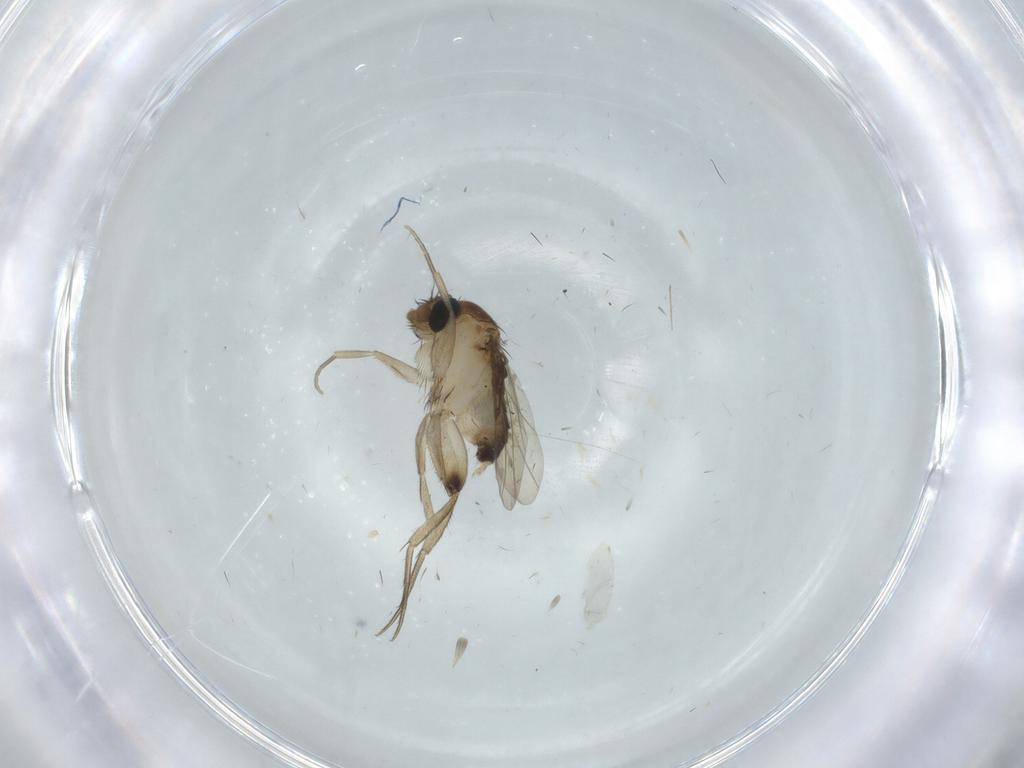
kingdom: Animalia
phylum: Arthropoda
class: Insecta
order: Diptera
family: Phoridae
